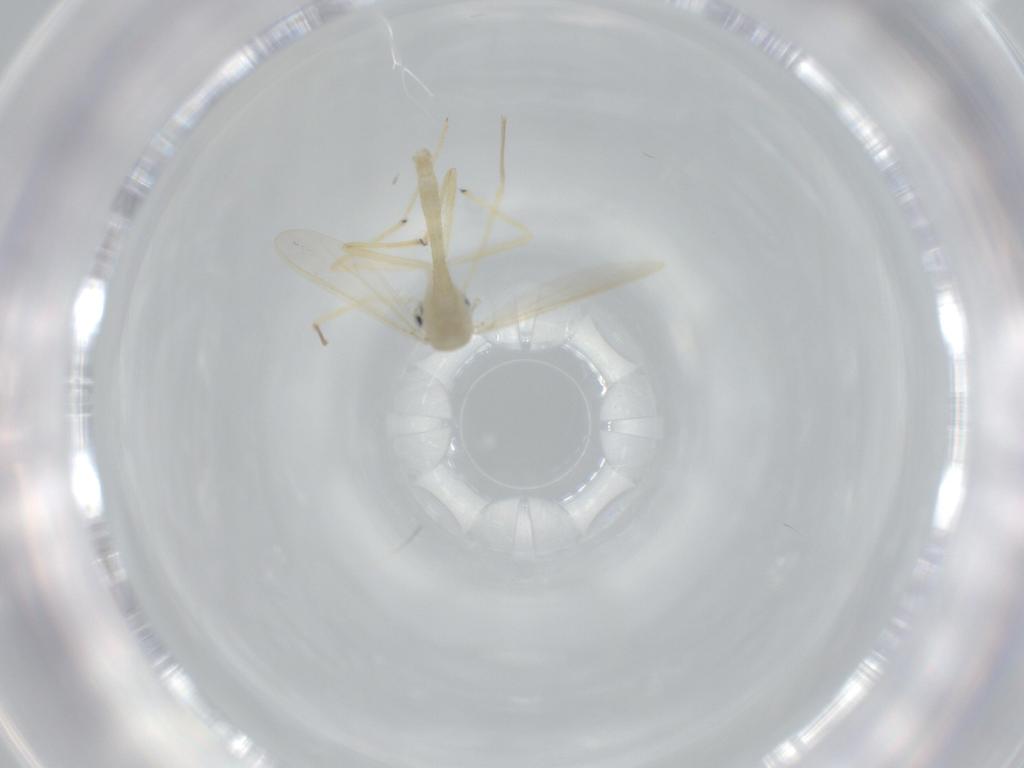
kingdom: Animalia
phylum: Arthropoda
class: Insecta
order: Diptera
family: Chironomidae
